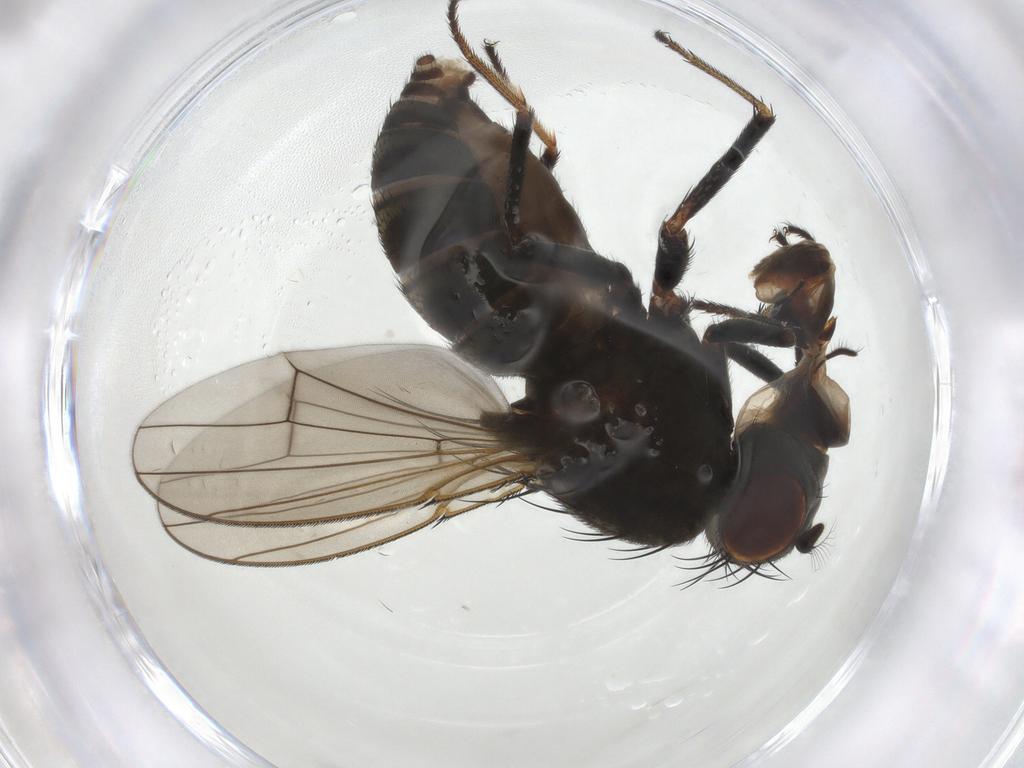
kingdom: Animalia
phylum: Arthropoda
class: Insecta
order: Diptera
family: Ephydridae
